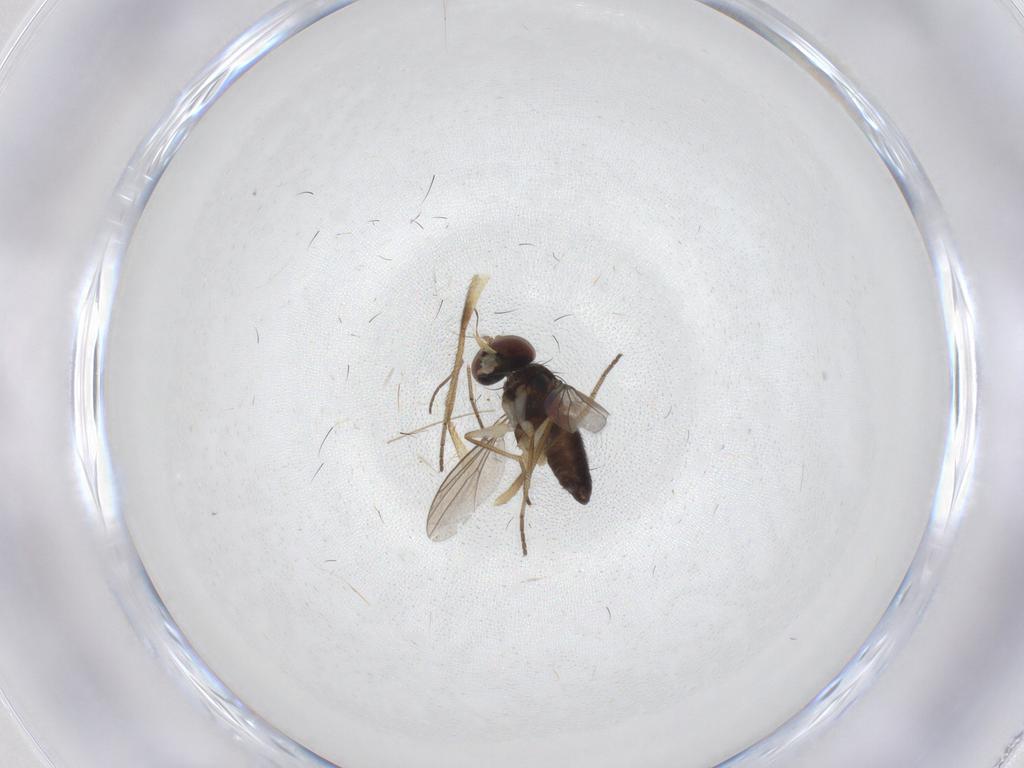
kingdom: Animalia
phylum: Arthropoda
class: Insecta
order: Diptera
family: Dolichopodidae
